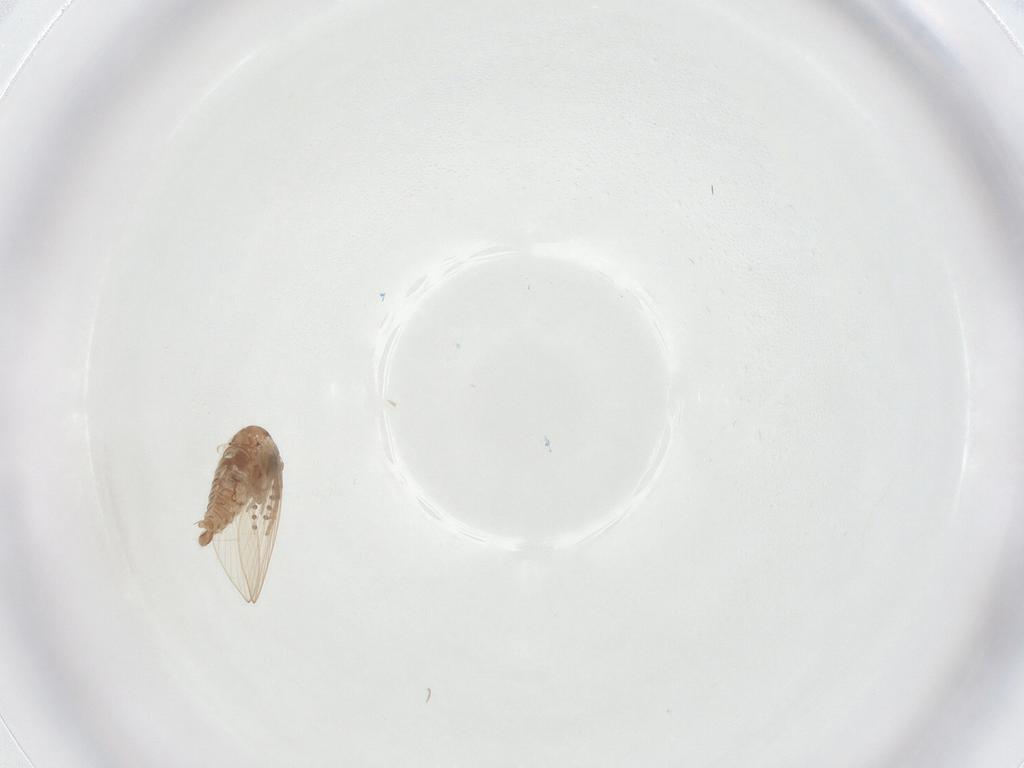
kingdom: Animalia
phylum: Arthropoda
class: Insecta
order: Diptera
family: Psychodidae
